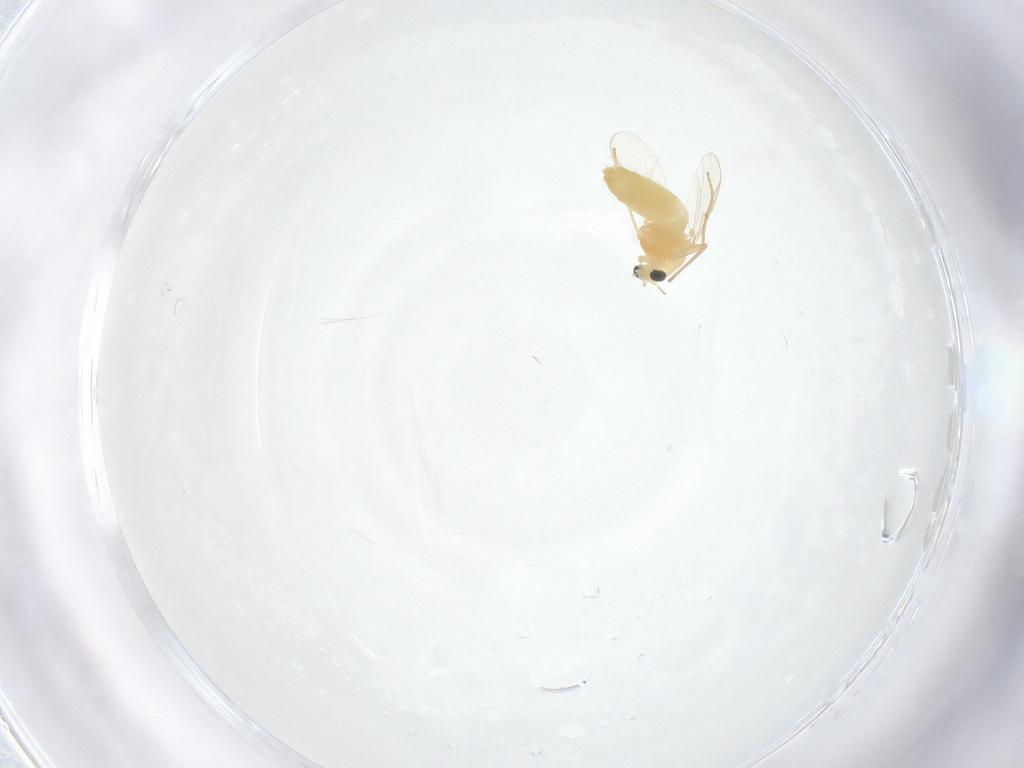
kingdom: Animalia
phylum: Arthropoda
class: Insecta
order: Diptera
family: Chironomidae
